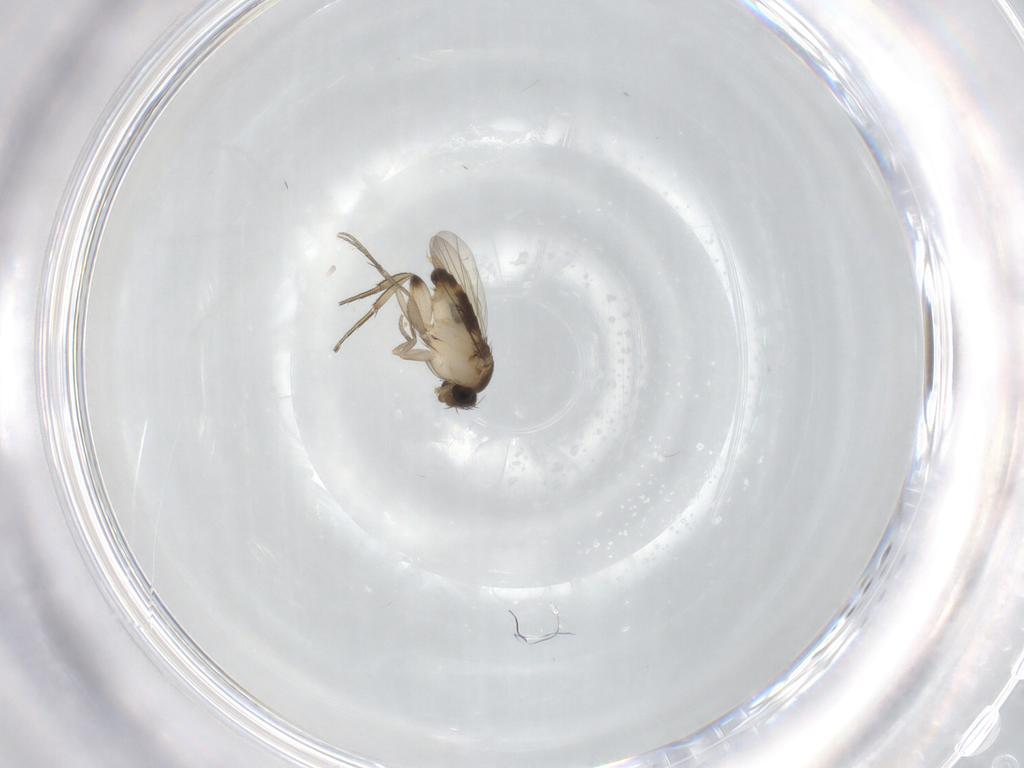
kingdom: Animalia
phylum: Arthropoda
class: Insecta
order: Diptera
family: Phoridae
